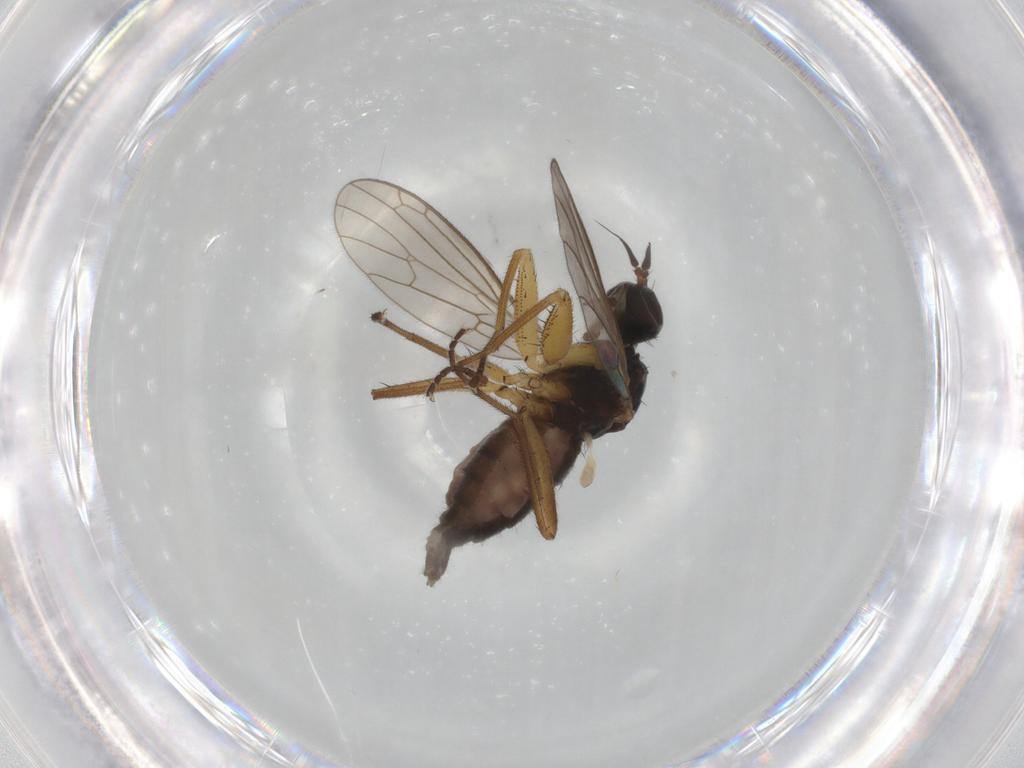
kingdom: Animalia
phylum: Arthropoda
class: Insecta
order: Diptera
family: Empididae
